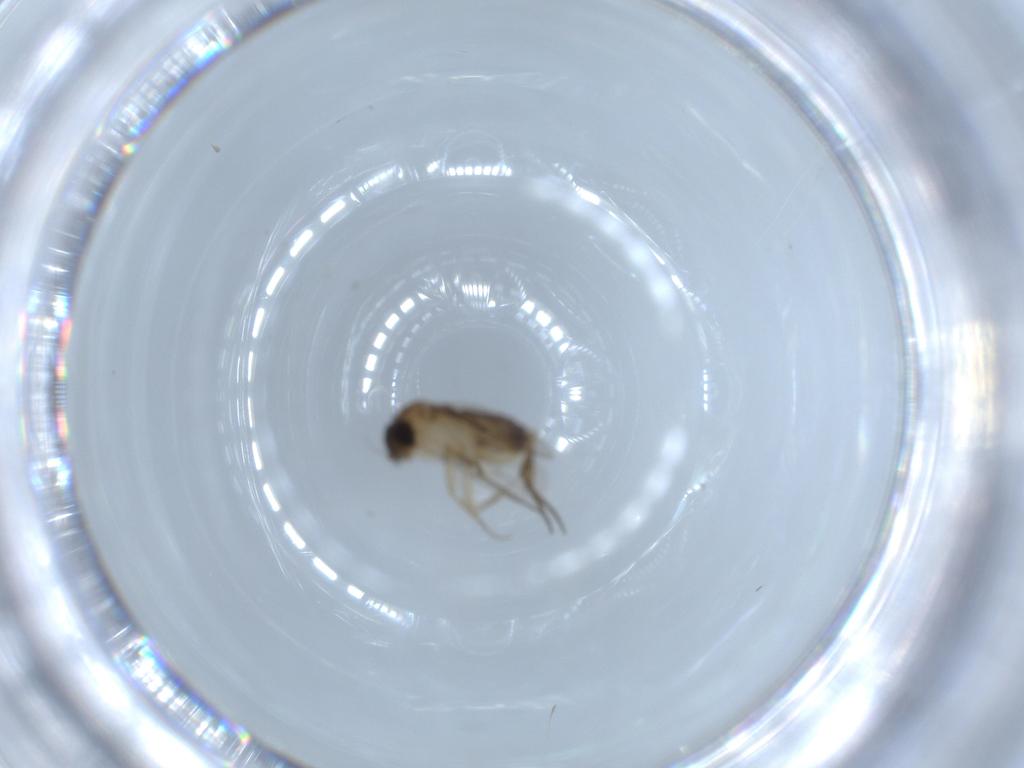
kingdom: Animalia
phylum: Arthropoda
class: Insecta
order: Diptera
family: Phoridae
